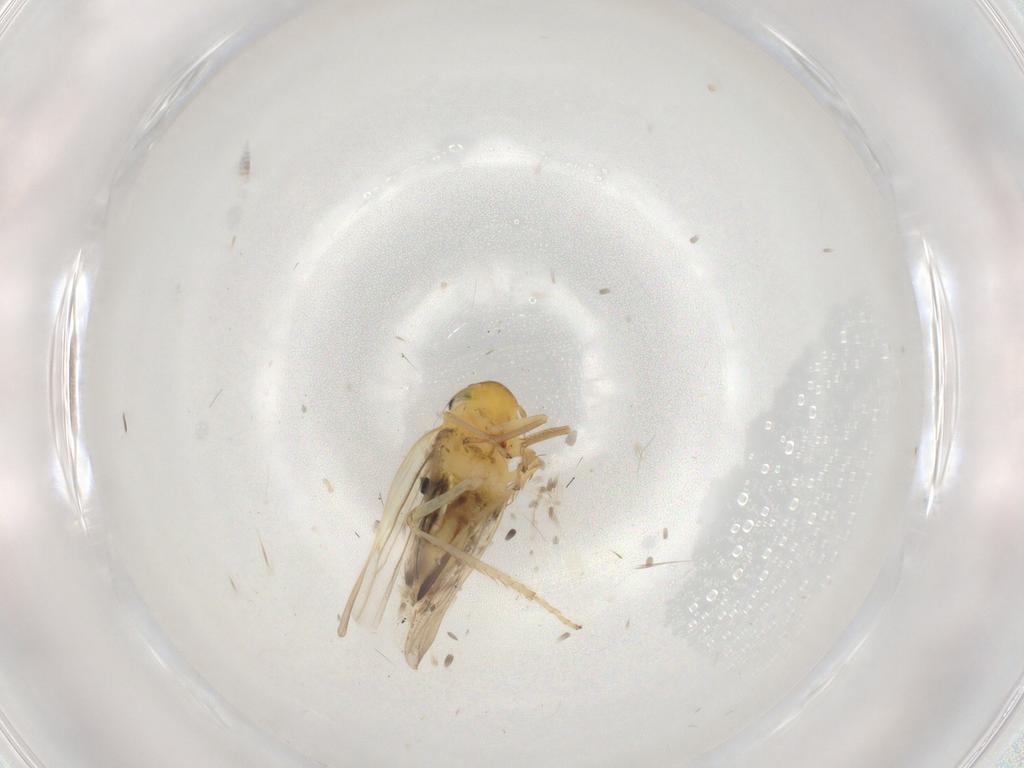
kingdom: Animalia
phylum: Arthropoda
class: Insecta
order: Hemiptera
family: Cicadellidae
